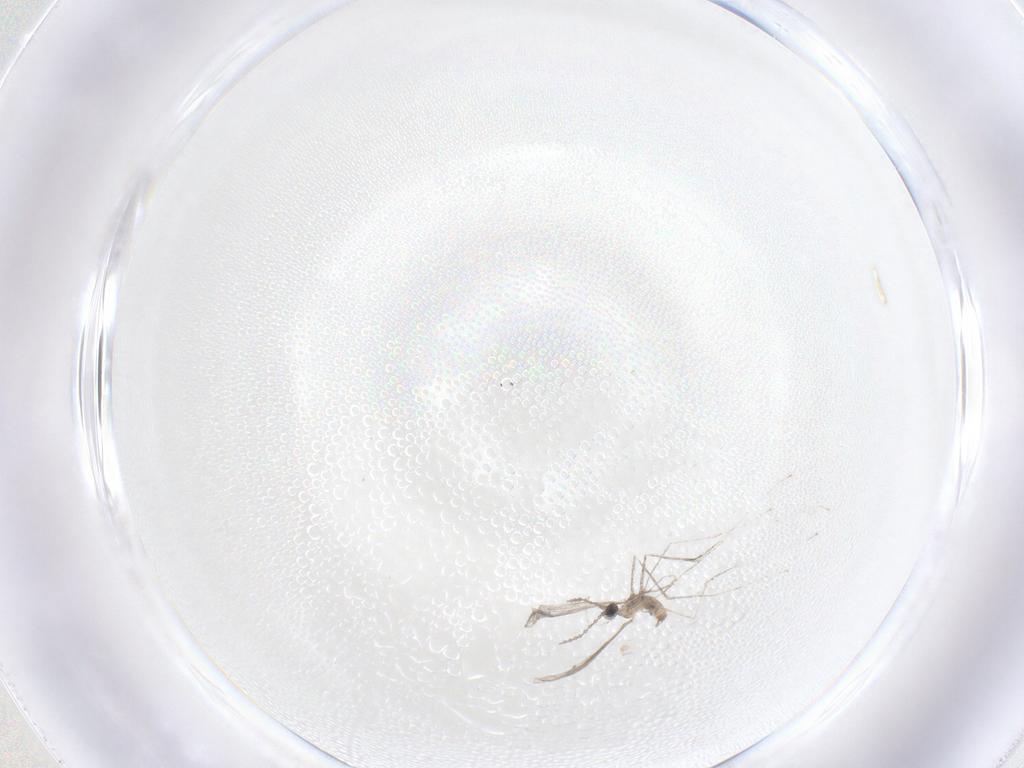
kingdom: Animalia
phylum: Arthropoda
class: Insecta
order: Diptera
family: Cecidomyiidae
